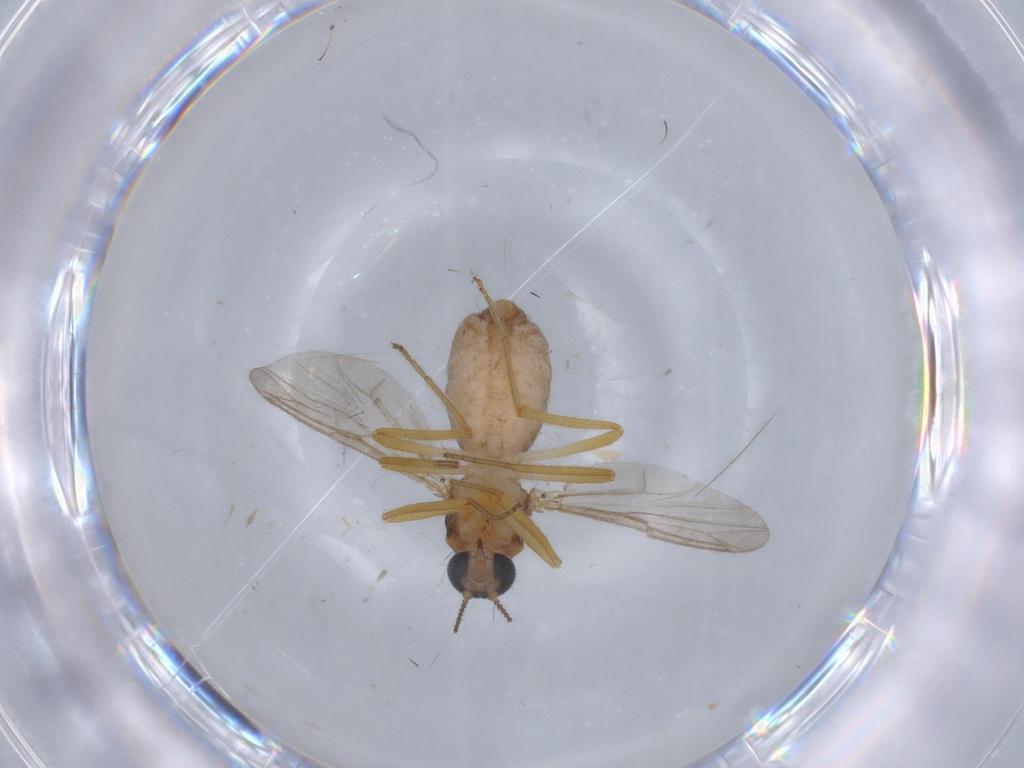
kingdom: Animalia
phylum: Arthropoda
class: Insecta
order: Diptera
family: Ceratopogonidae
